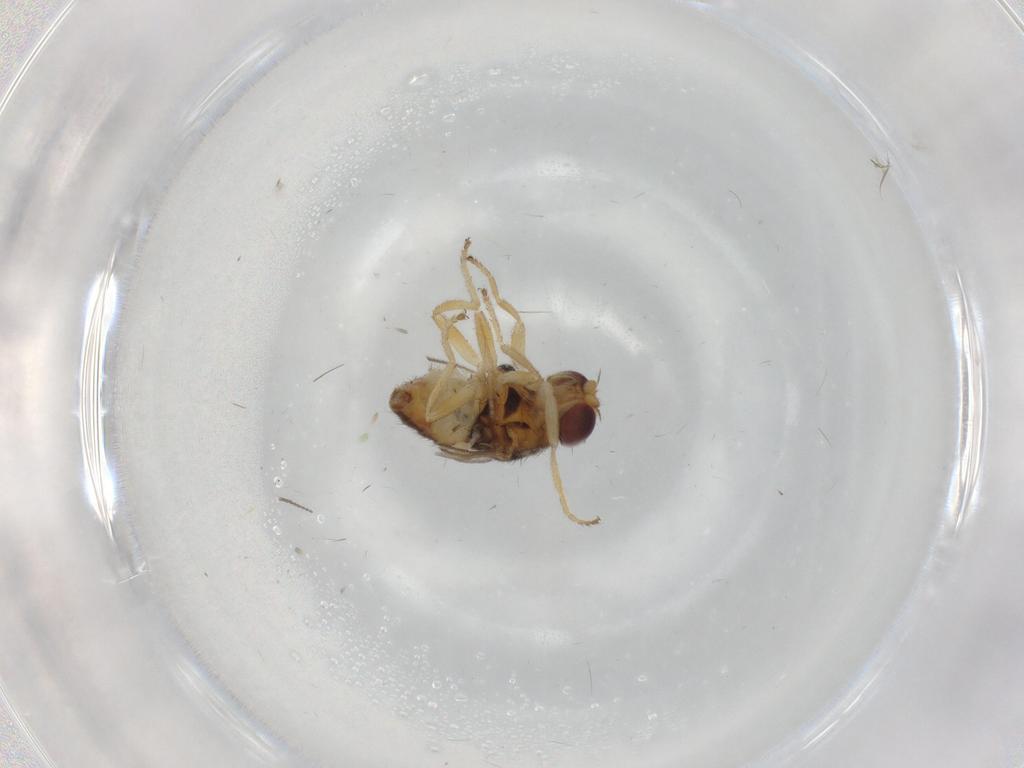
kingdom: Animalia
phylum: Arthropoda
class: Insecta
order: Diptera
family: Chloropidae
